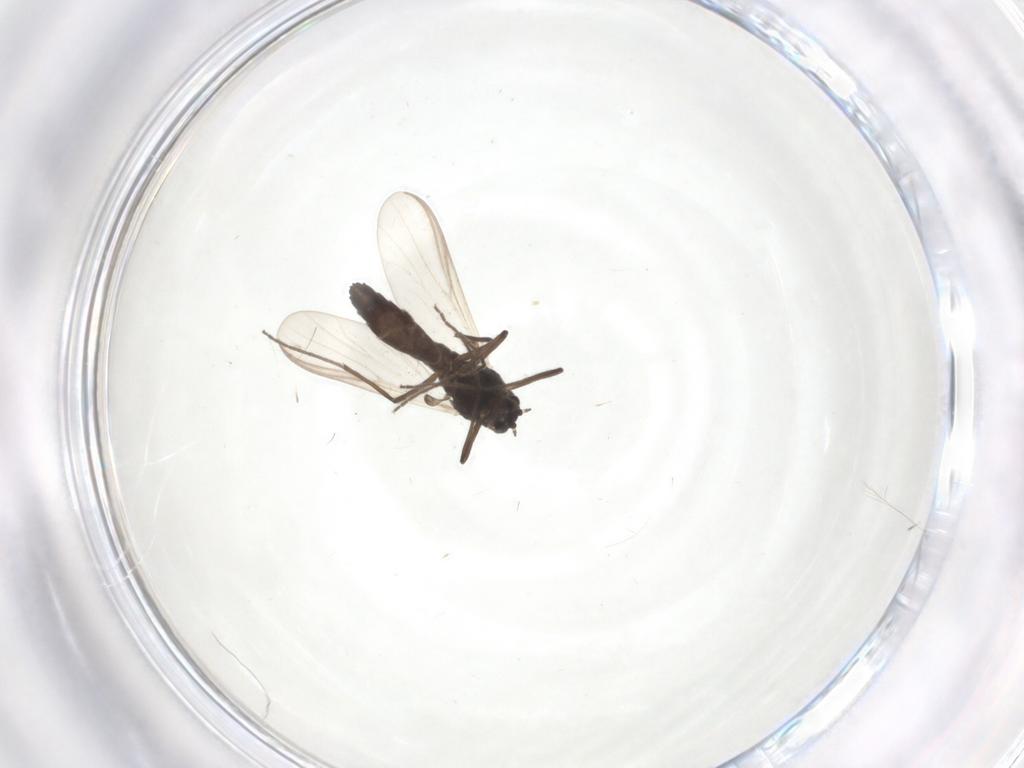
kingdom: Animalia
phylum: Arthropoda
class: Insecta
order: Diptera
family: Chironomidae
